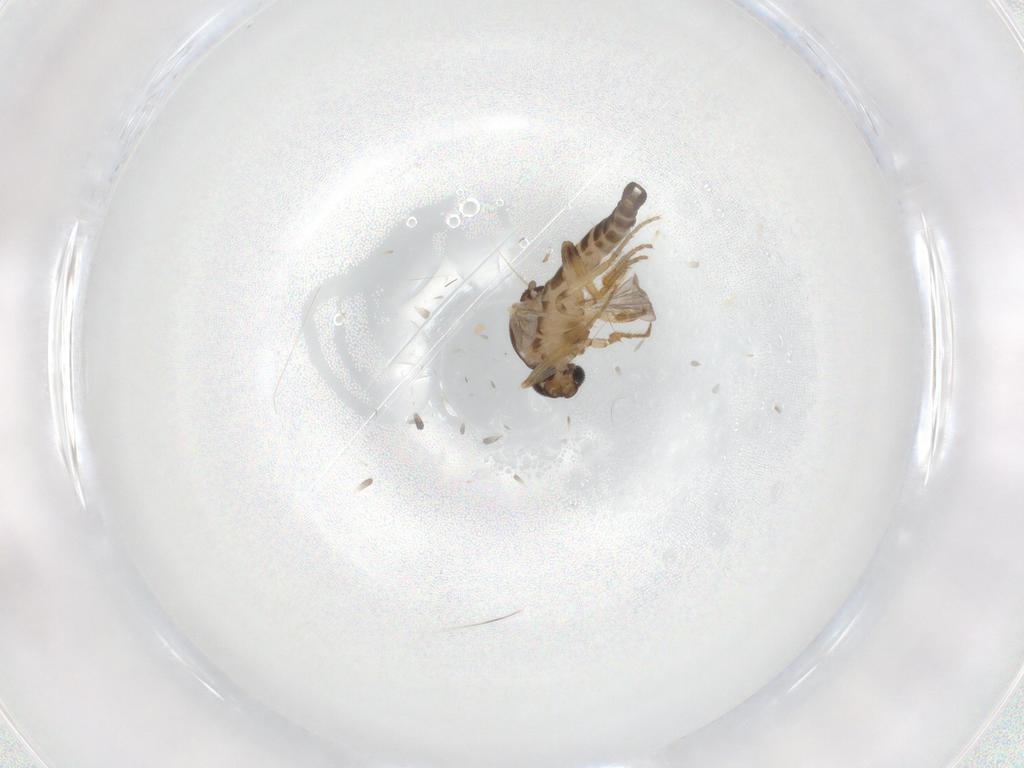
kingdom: Animalia
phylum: Arthropoda
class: Insecta
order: Diptera
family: Ceratopogonidae
